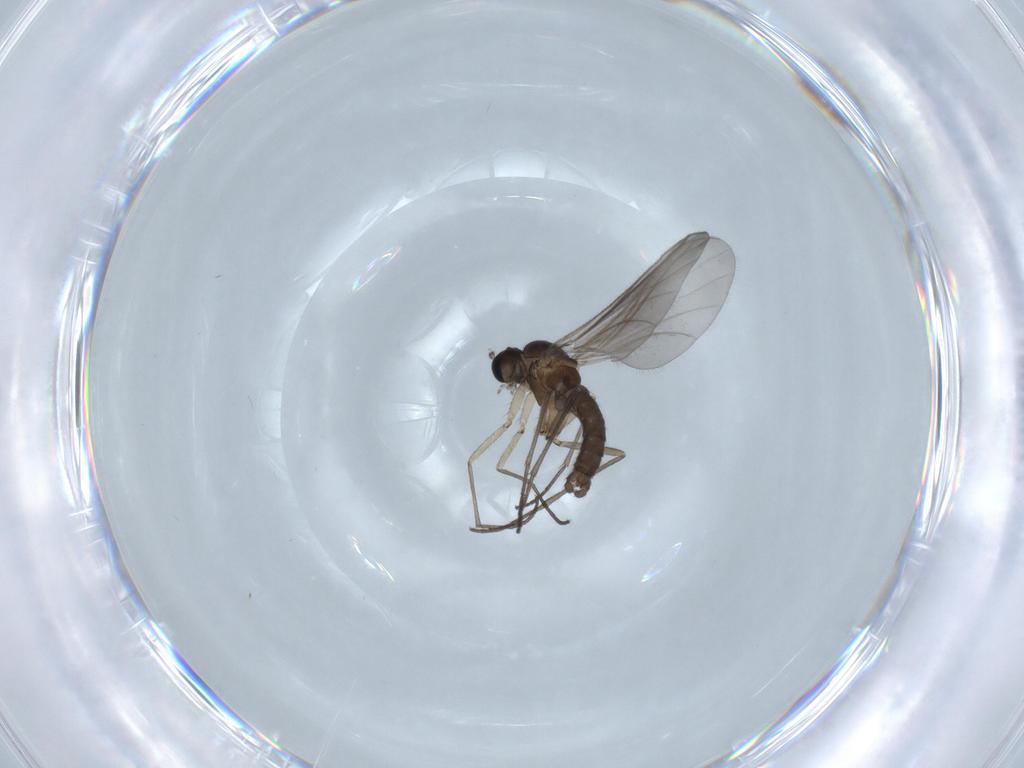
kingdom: Animalia
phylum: Arthropoda
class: Insecta
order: Diptera
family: Sciaridae
